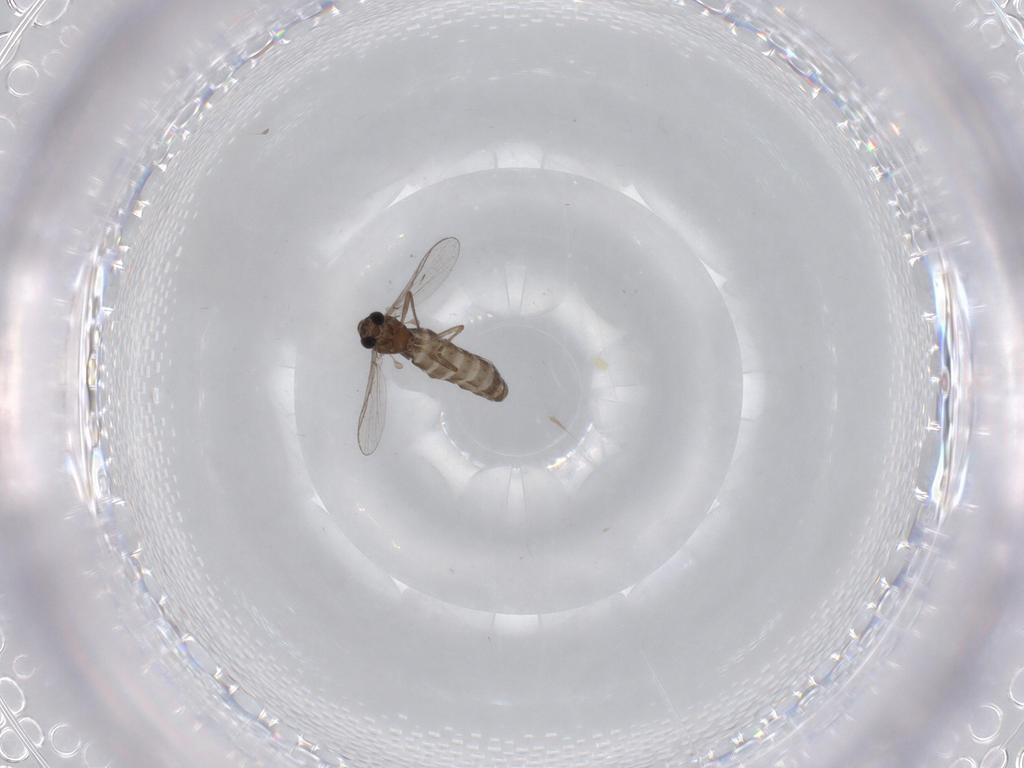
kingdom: Animalia
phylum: Arthropoda
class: Insecta
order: Diptera
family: Chironomidae
